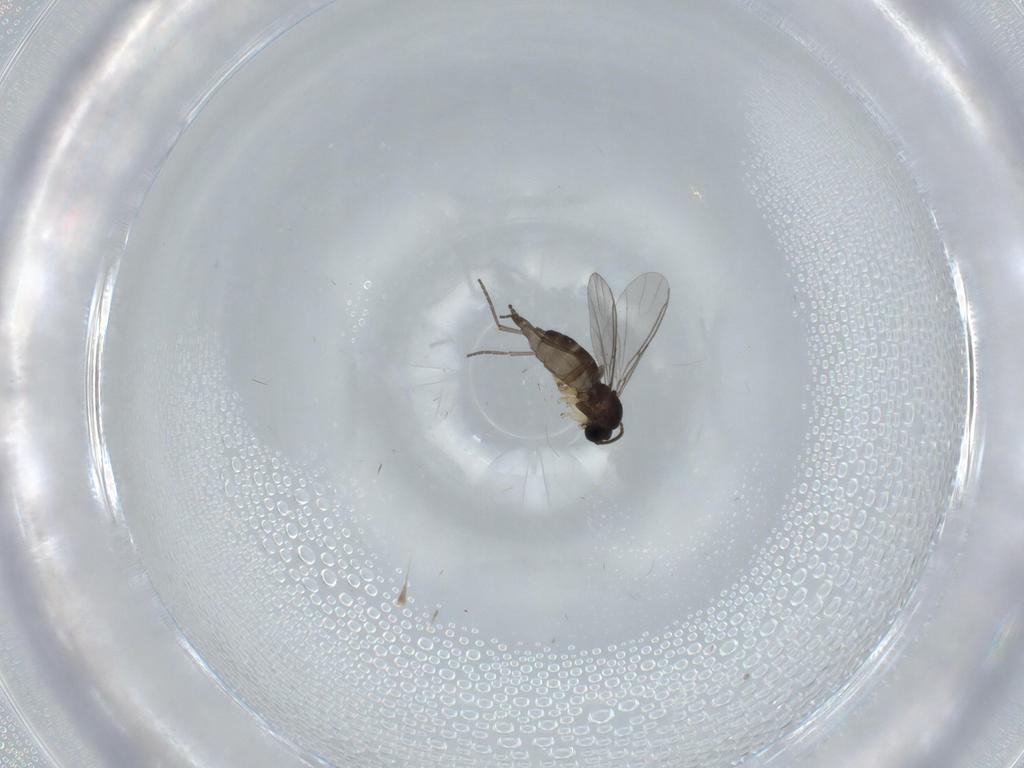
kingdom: Animalia
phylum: Arthropoda
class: Insecta
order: Diptera
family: Sciaridae
